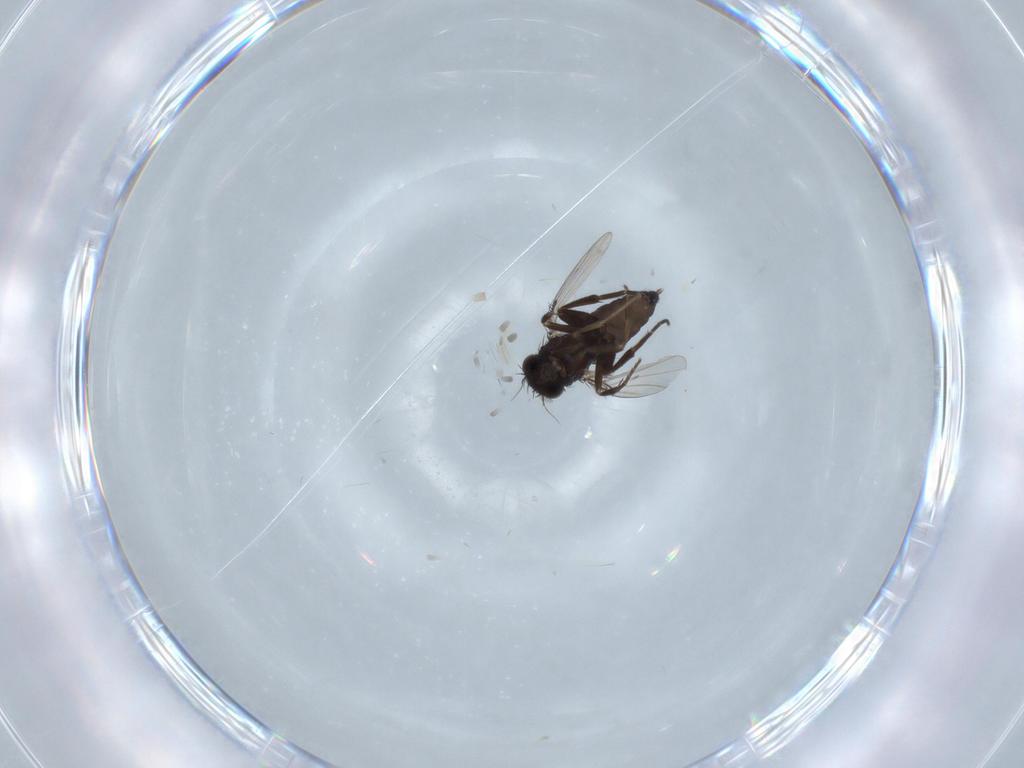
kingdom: Animalia
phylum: Arthropoda
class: Insecta
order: Diptera
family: Phoridae
